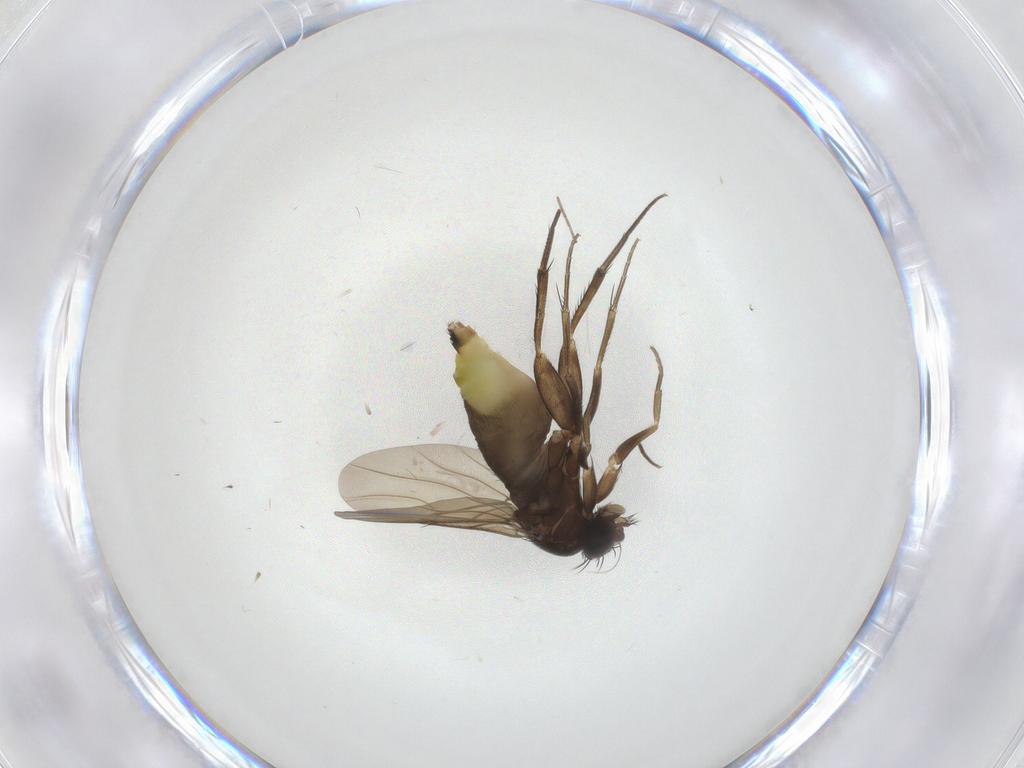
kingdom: Animalia
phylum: Arthropoda
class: Insecta
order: Diptera
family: Phoridae
